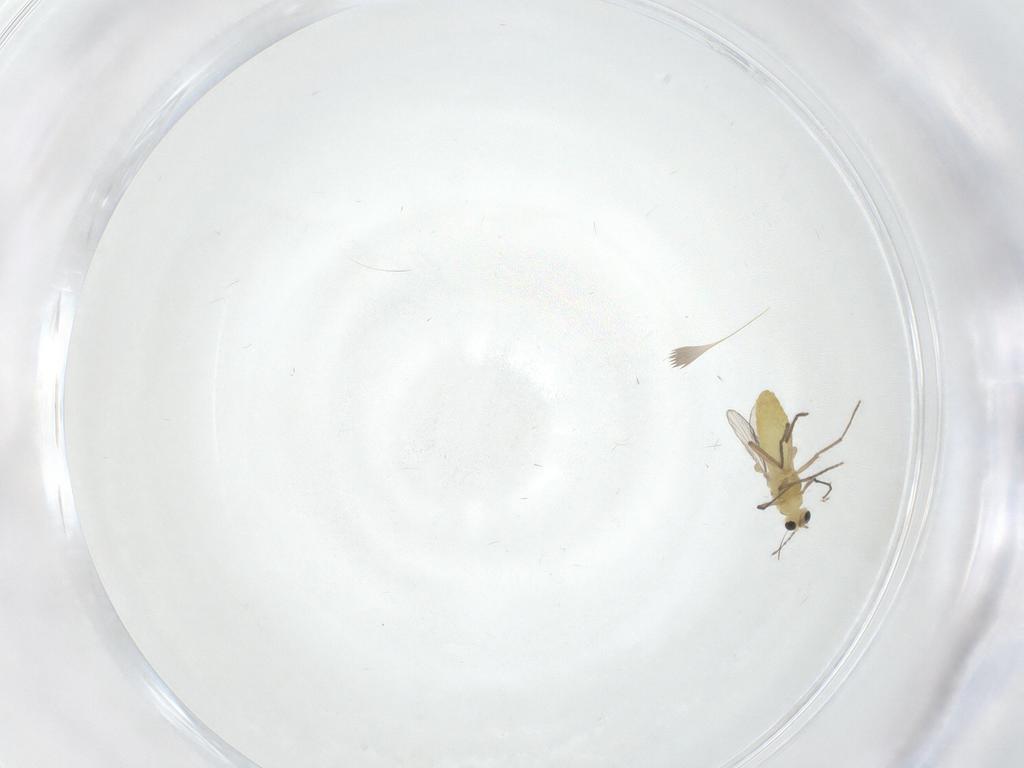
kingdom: Animalia
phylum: Arthropoda
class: Insecta
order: Diptera
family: Chironomidae
